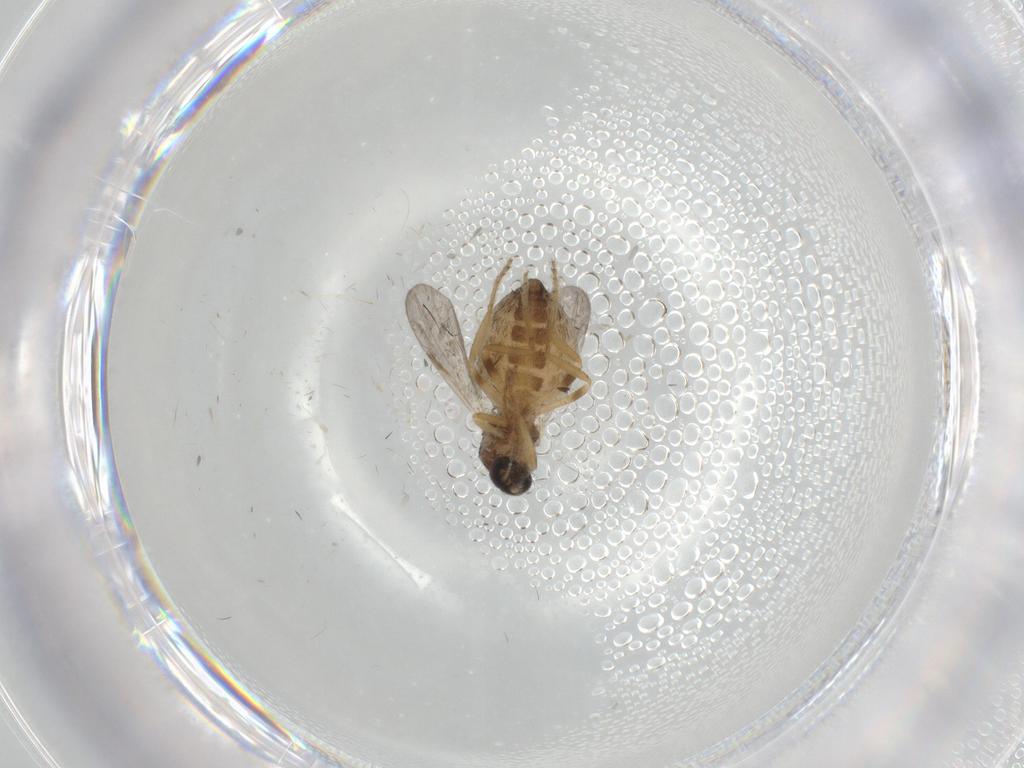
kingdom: Animalia
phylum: Arthropoda
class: Insecta
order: Diptera
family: Ceratopogonidae
